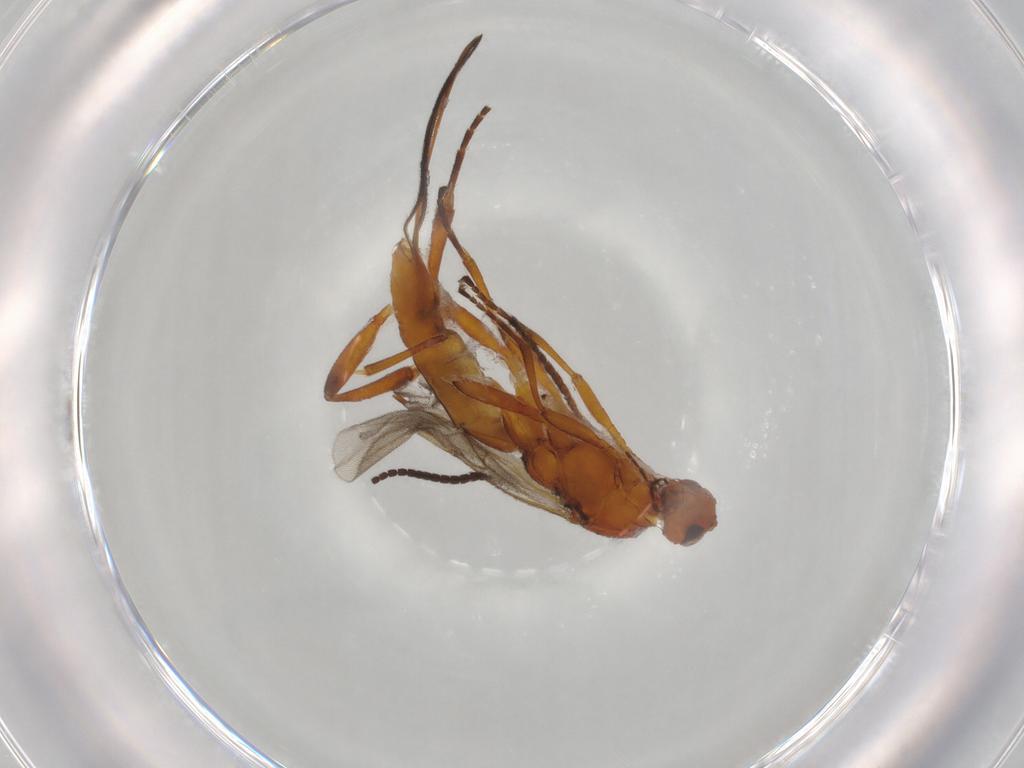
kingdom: Animalia
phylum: Arthropoda
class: Insecta
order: Hymenoptera
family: Braconidae
